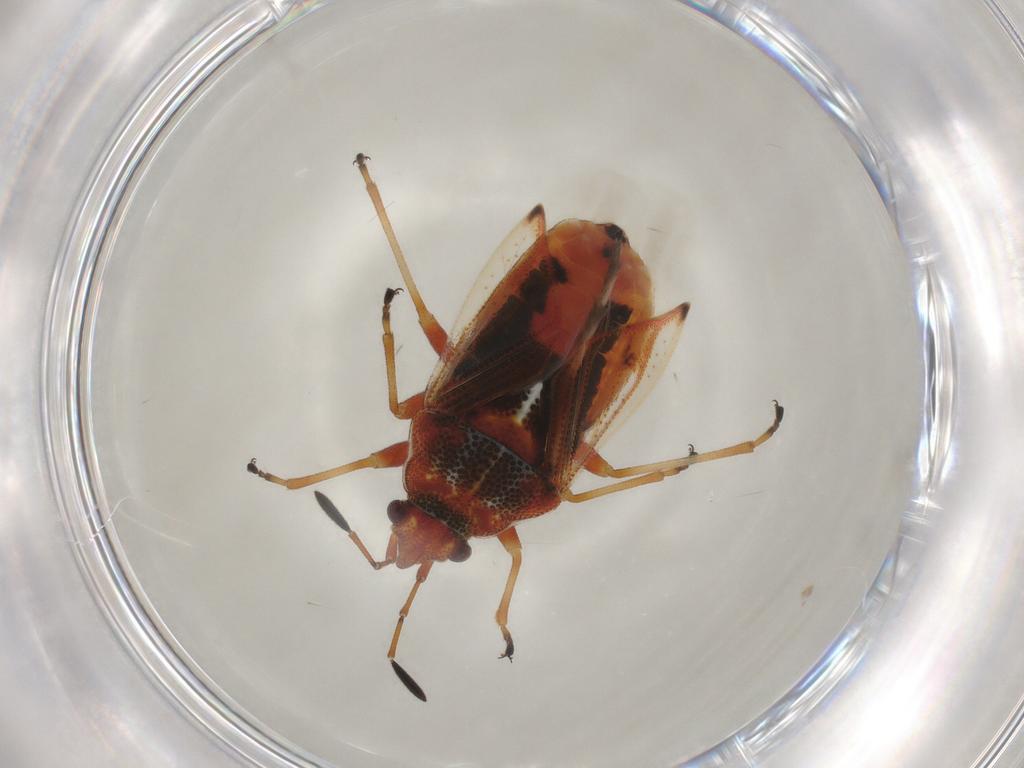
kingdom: Animalia
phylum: Arthropoda
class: Insecta
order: Hemiptera
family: Lygaeidae
